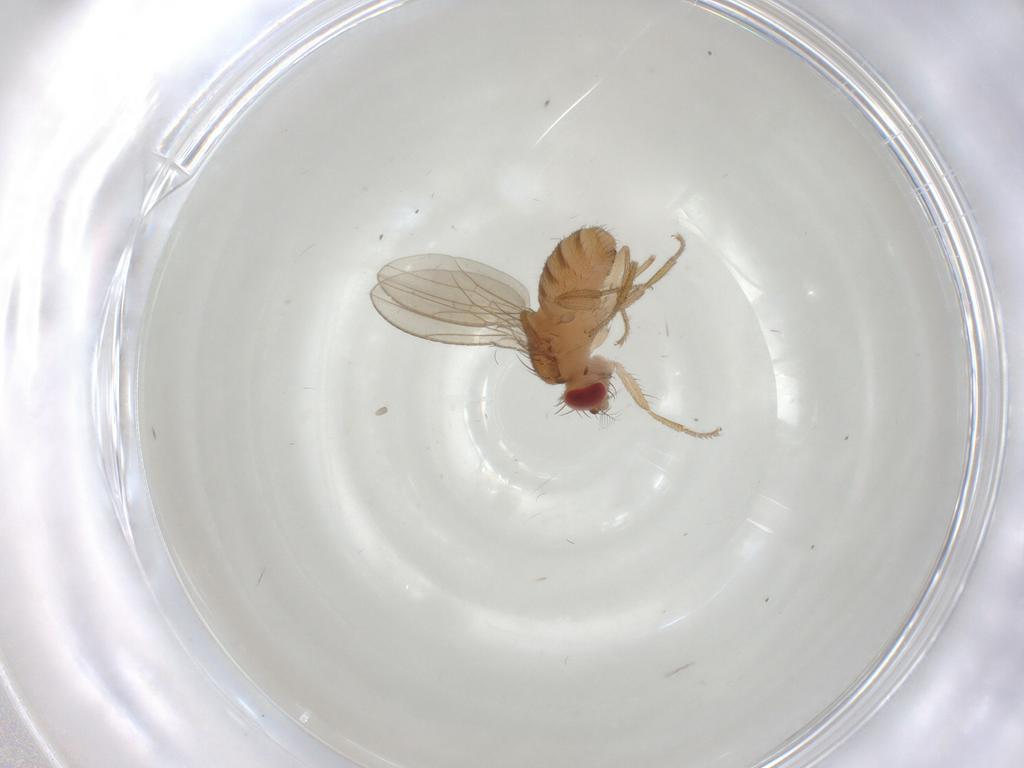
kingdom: Animalia
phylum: Arthropoda
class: Insecta
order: Diptera
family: Drosophilidae
